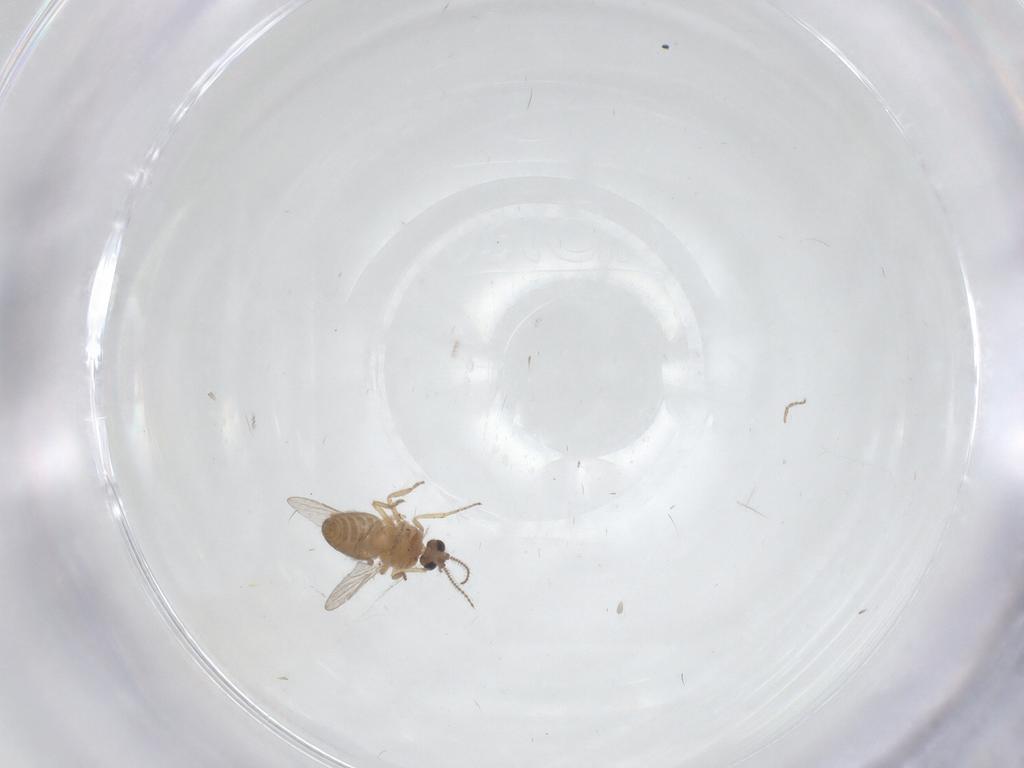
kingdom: Animalia
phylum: Arthropoda
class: Insecta
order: Diptera
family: Ceratopogonidae
